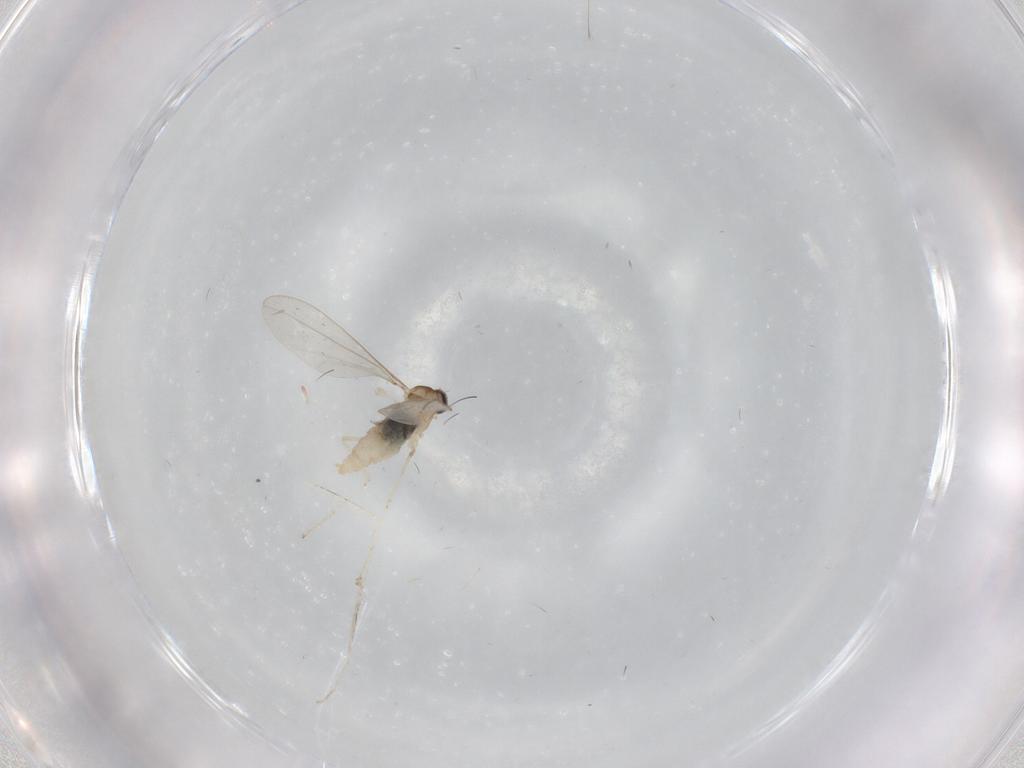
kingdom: Animalia
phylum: Arthropoda
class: Insecta
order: Diptera
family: Cecidomyiidae
